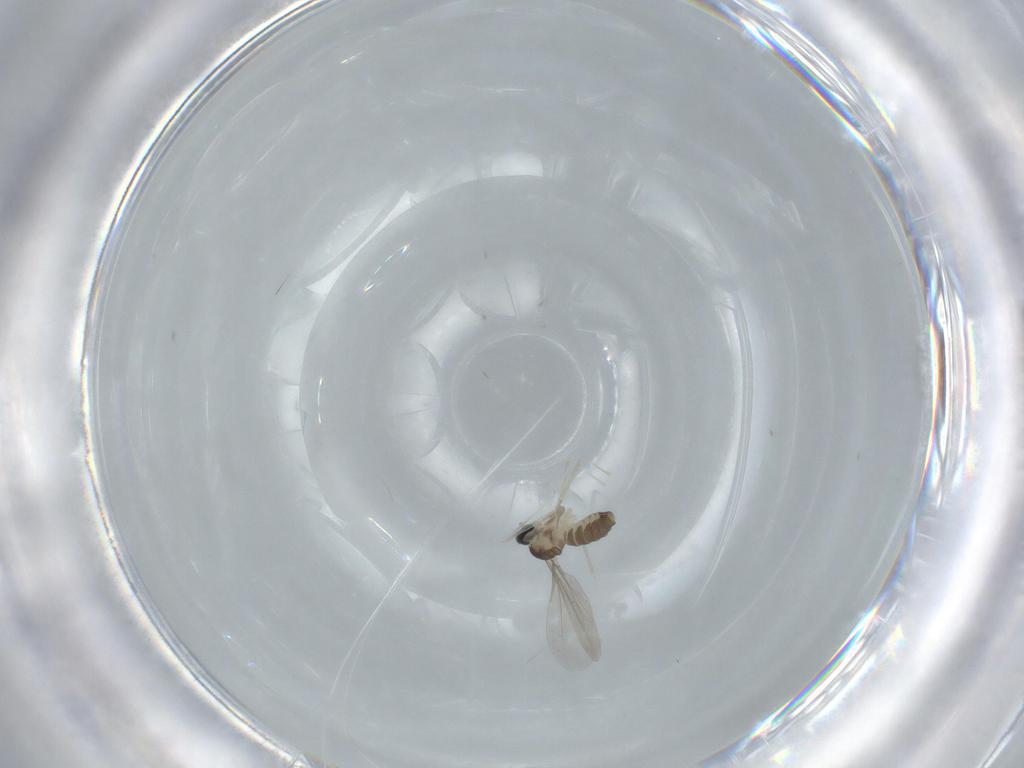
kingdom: Animalia
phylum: Arthropoda
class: Insecta
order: Diptera
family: Cecidomyiidae
